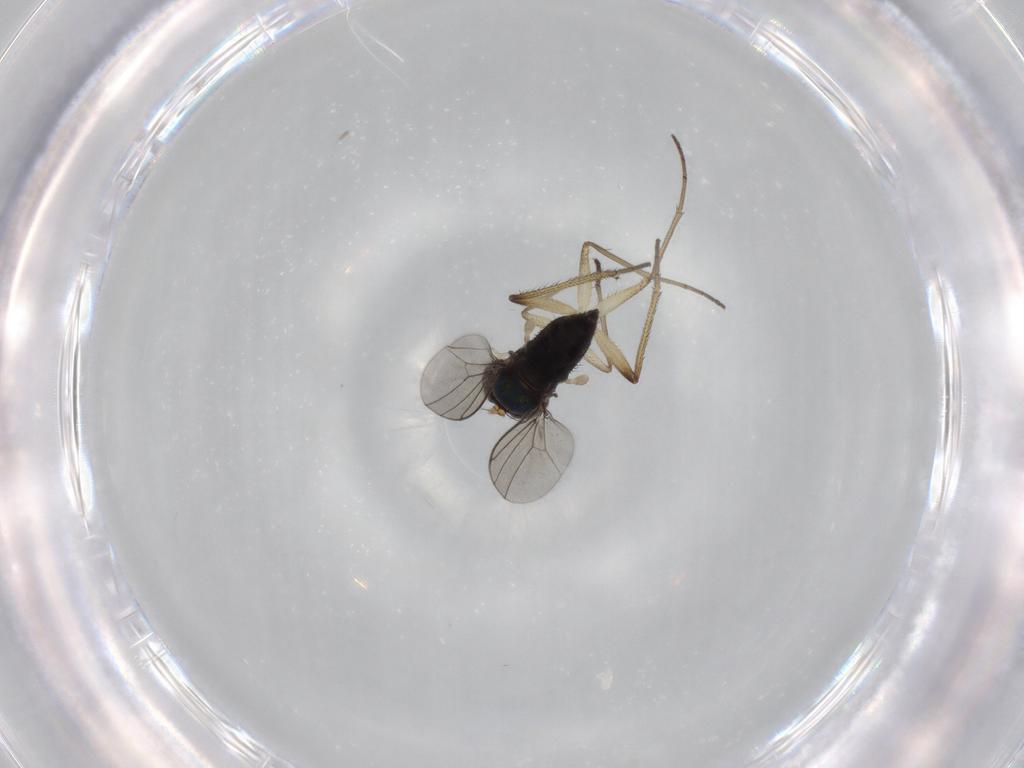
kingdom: Animalia
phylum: Arthropoda
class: Insecta
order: Diptera
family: Dolichopodidae
